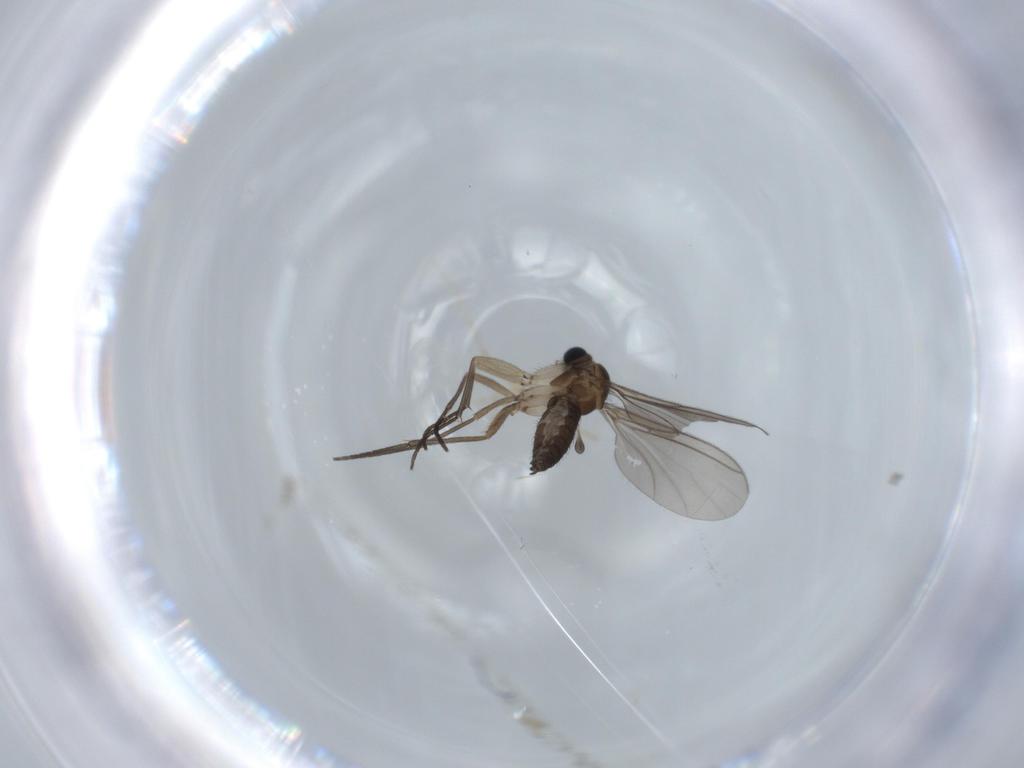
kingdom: Animalia
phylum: Arthropoda
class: Insecta
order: Diptera
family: Sciaridae
